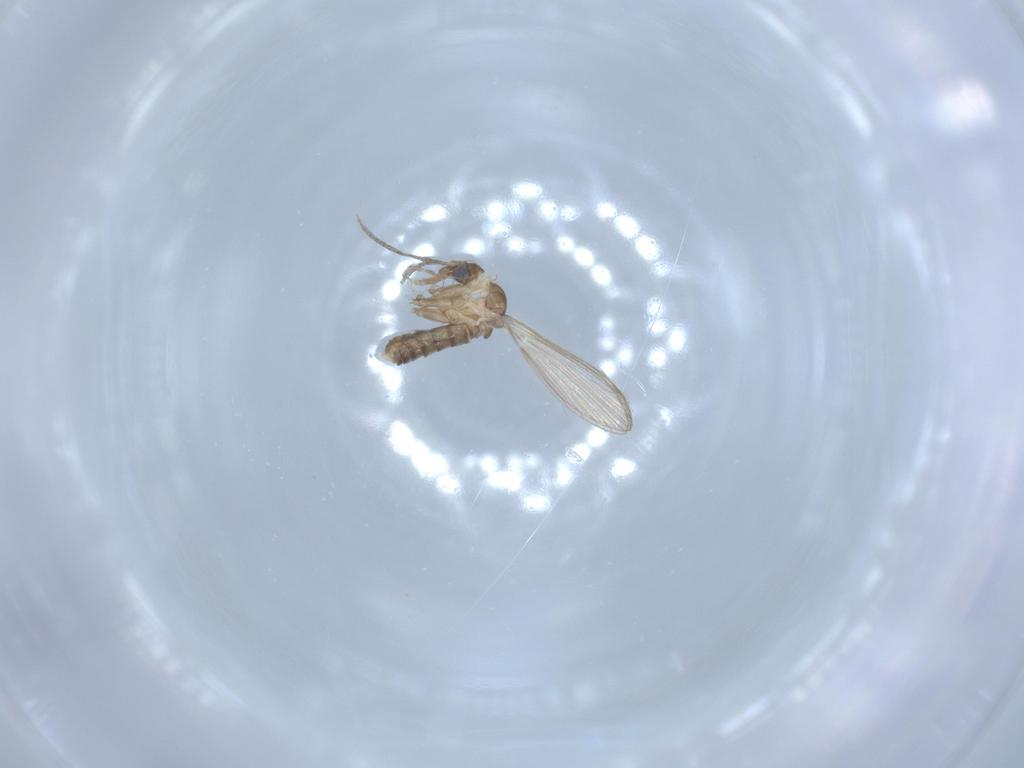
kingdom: Animalia
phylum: Arthropoda
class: Insecta
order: Diptera
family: Psychodidae
